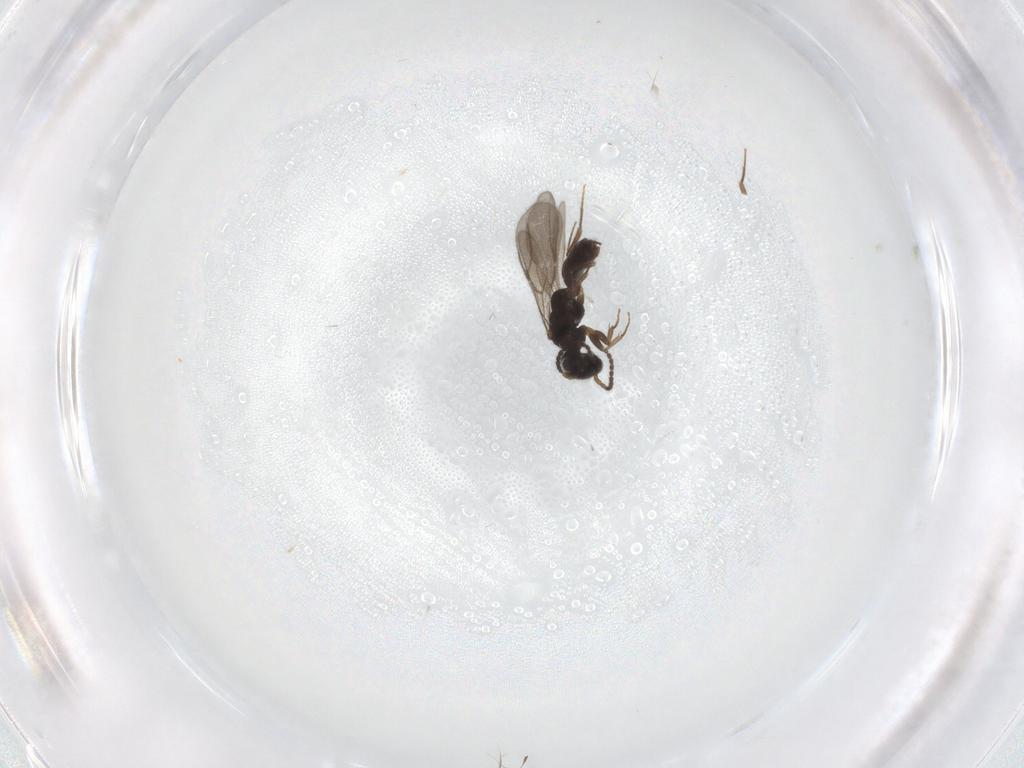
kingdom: Animalia
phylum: Arthropoda
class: Insecta
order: Hymenoptera
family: Bethylidae
